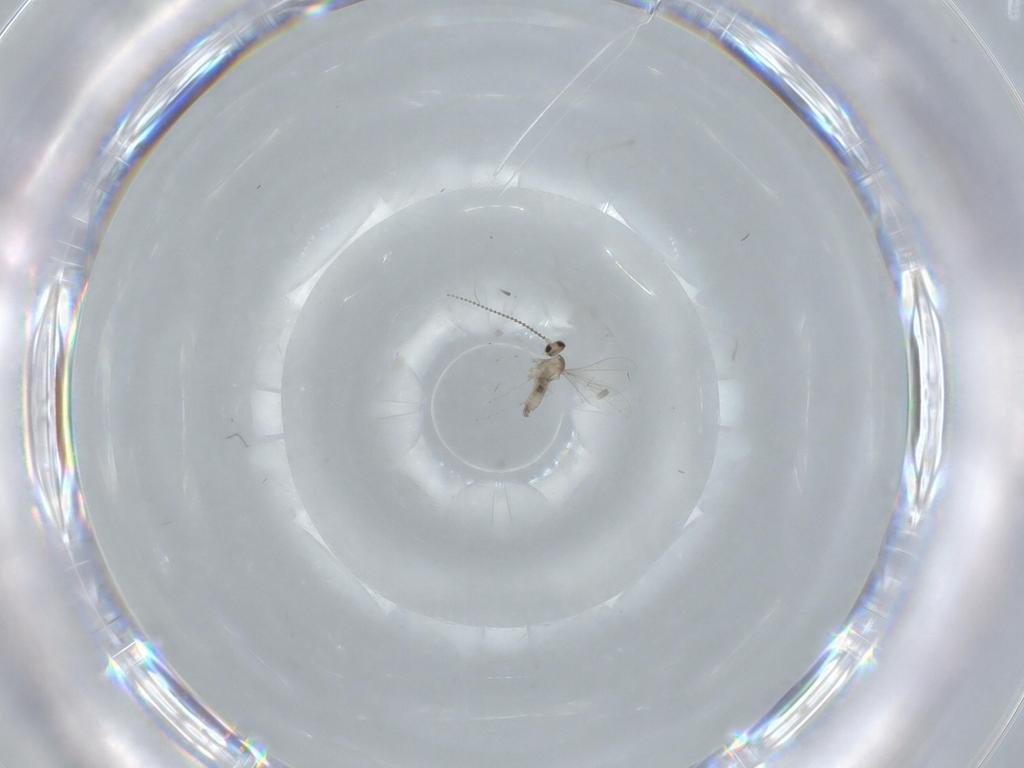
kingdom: Animalia
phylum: Arthropoda
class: Insecta
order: Diptera
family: Cecidomyiidae
